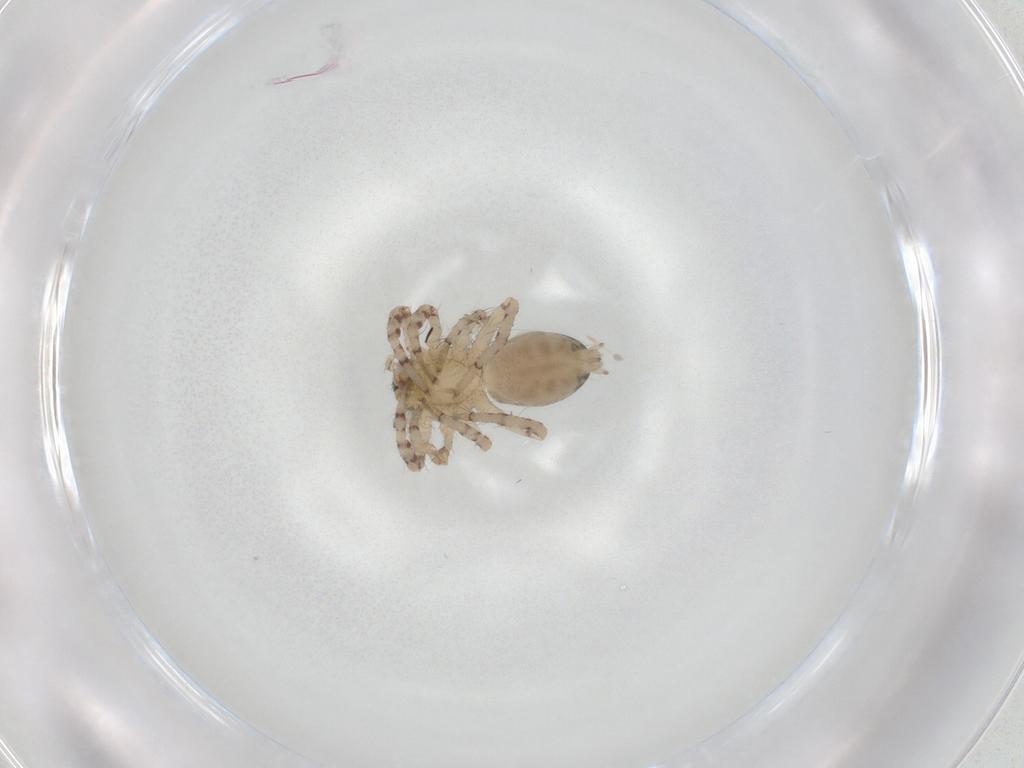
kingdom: Animalia
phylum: Arthropoda
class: Arachnida
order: Araneae
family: Anyphaenidae
